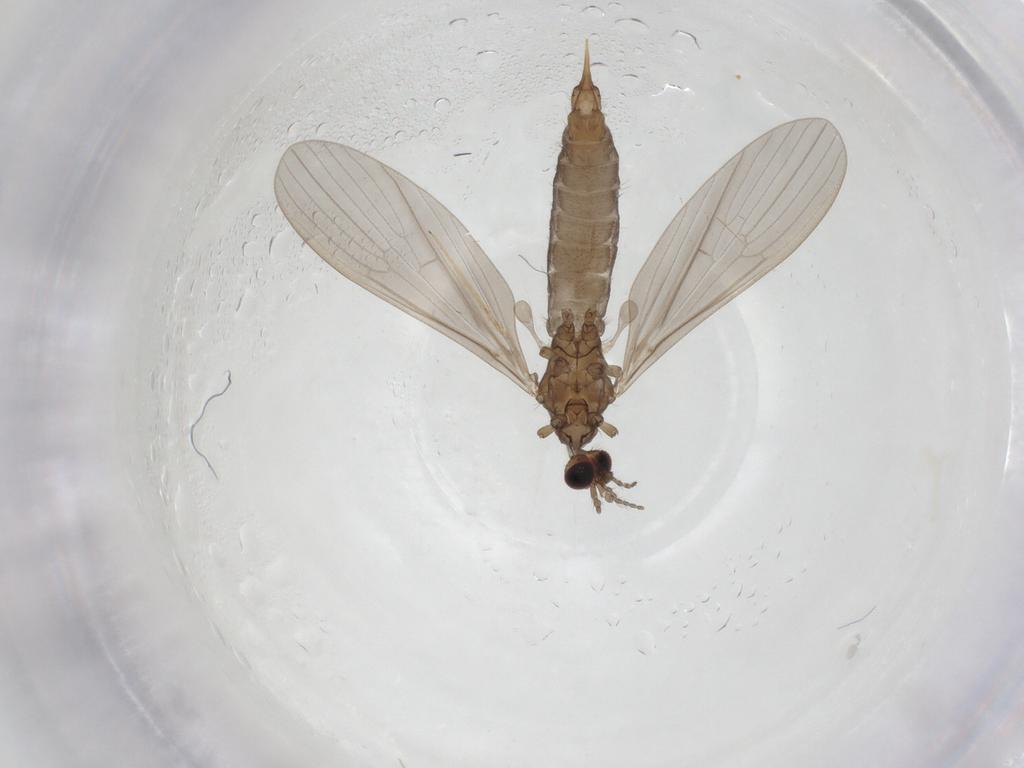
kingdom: Animalia
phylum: Arthropoda
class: Insecta
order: Diptera
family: Limoniidae
